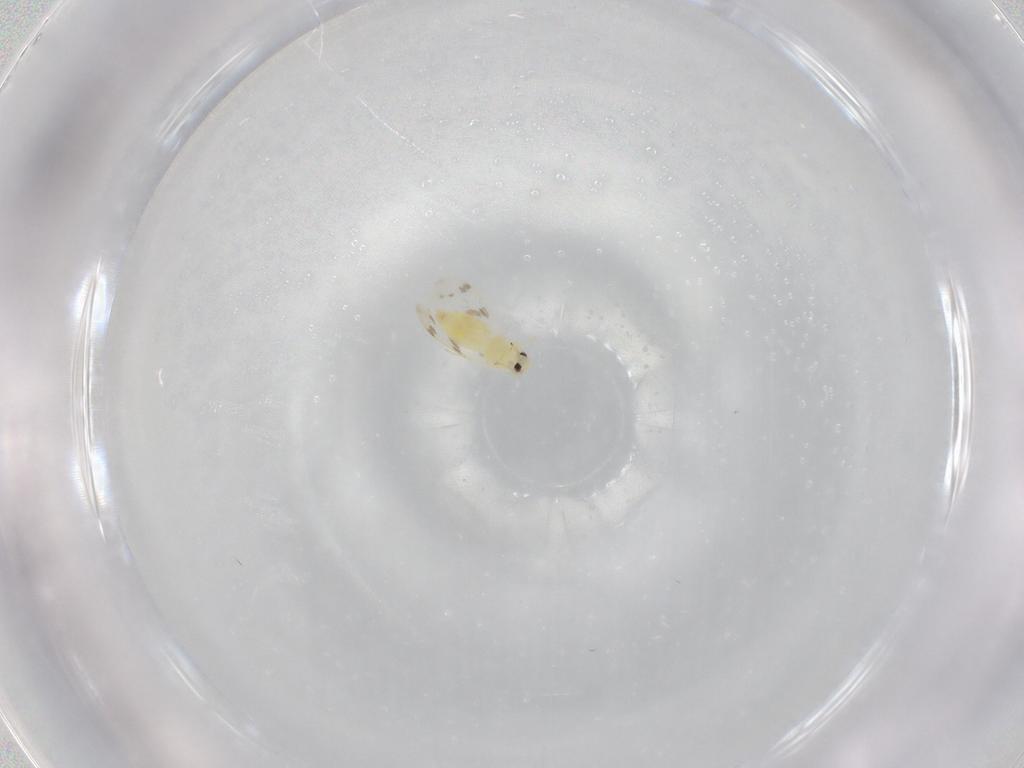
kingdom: Animalia
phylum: Arthropoda
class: Insecta
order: Hemiptera
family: Aleyrodidae
